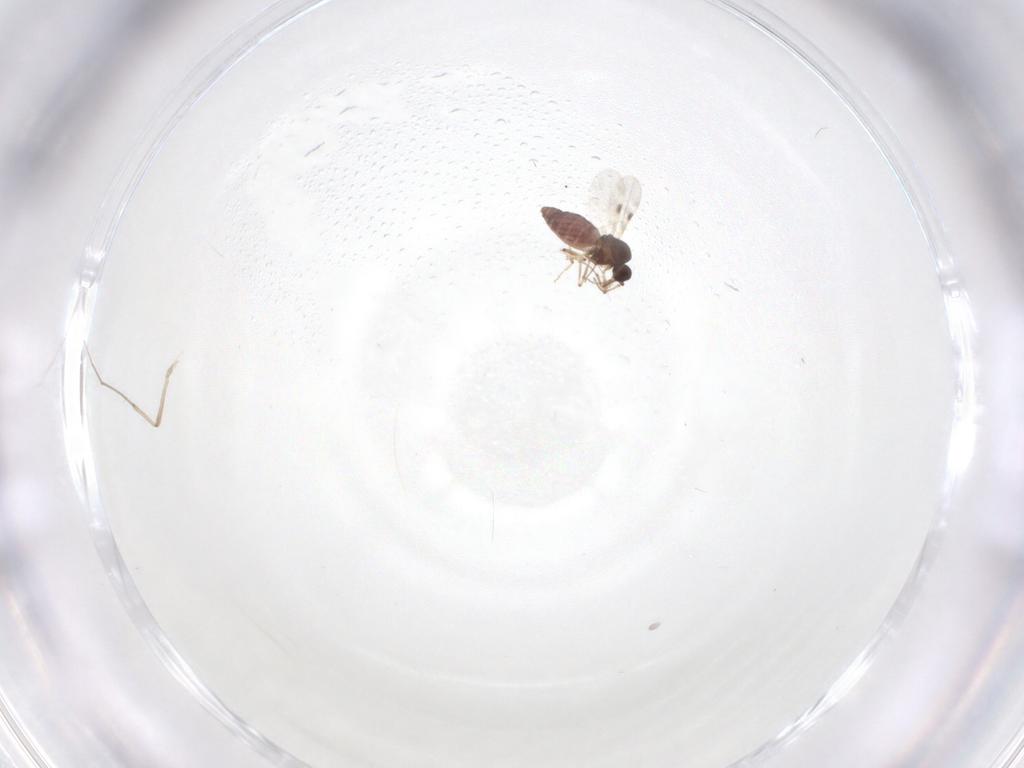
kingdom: Animalia
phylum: Arthropoda
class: Insecta
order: Diptera
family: Chironomidae
